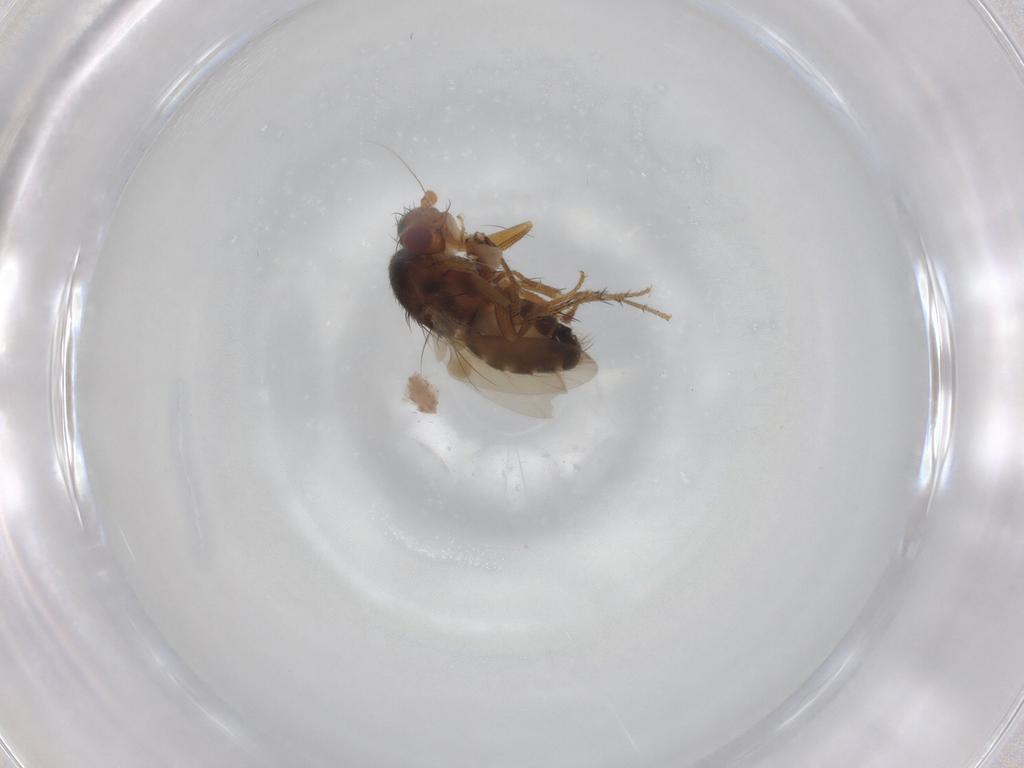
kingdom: Animalia
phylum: Arthropoda
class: Insecta
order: Diptera
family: Sphaeroceridae
